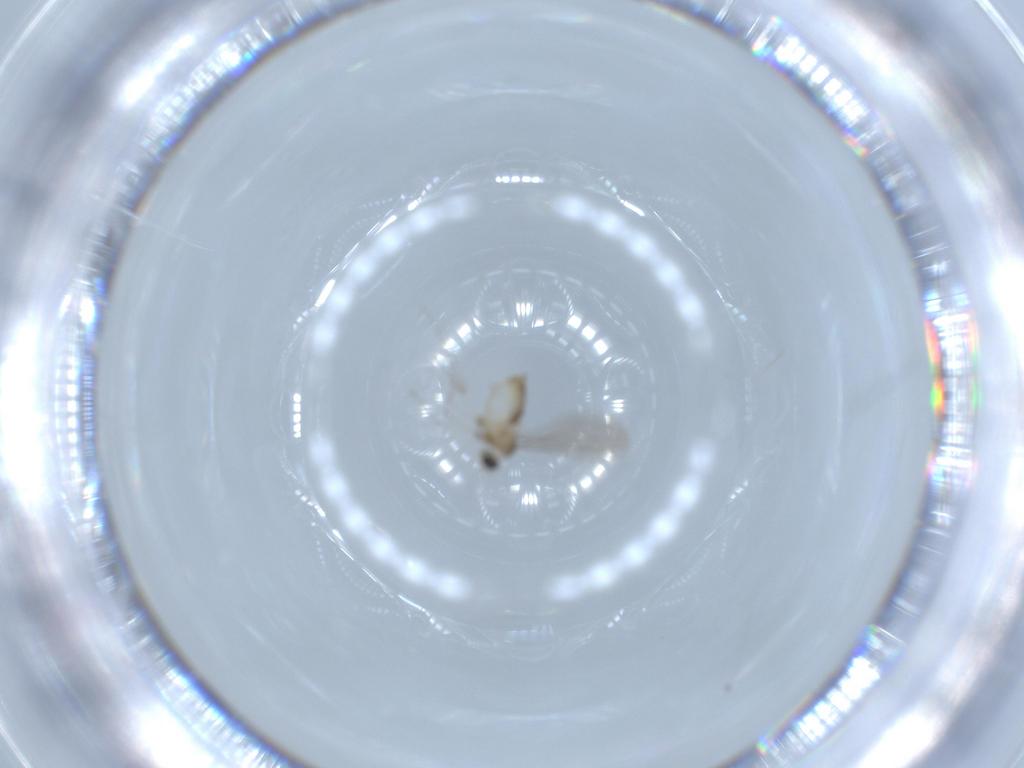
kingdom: Animalia
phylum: Arthropoda
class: Insecta
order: Diptera
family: Cecidomyiidae
